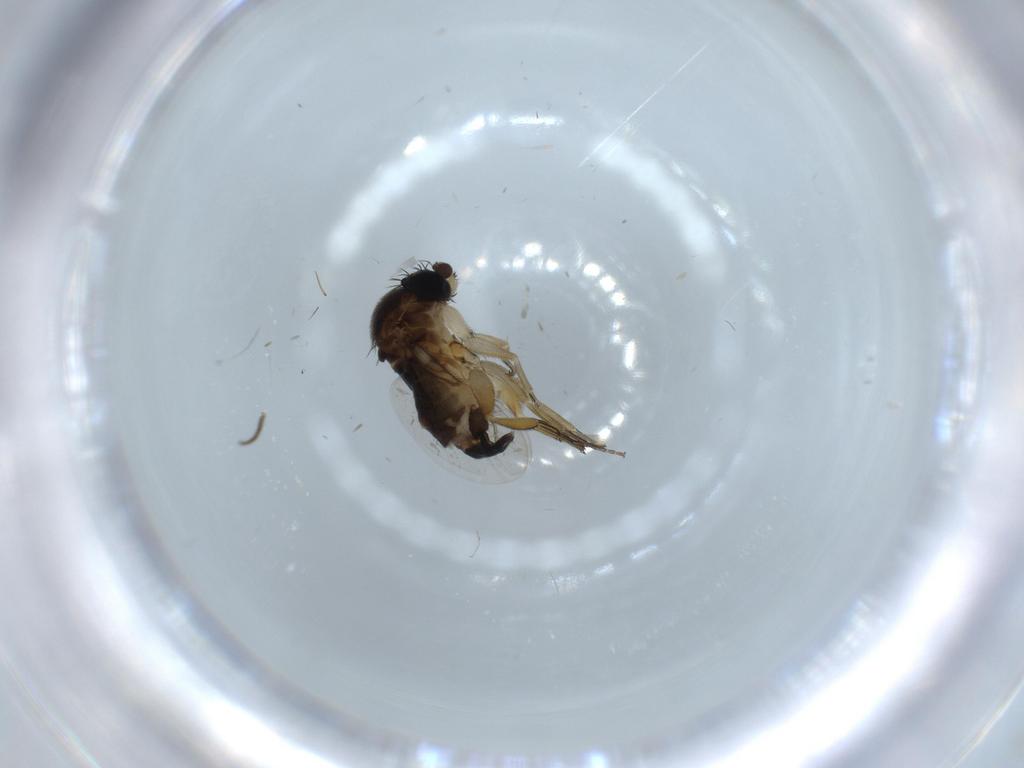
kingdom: Animalia
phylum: Arthropoda
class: Insecta
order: Diptera
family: Phoridae
